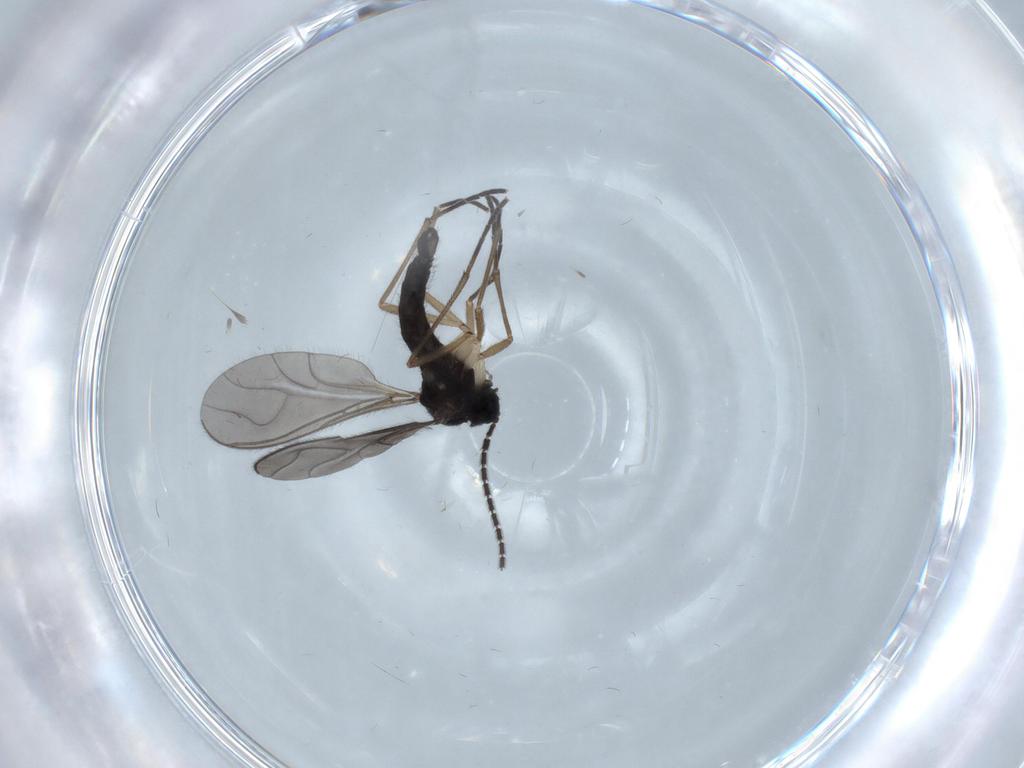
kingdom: Animalia
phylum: Arthropoda
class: Insecta
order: Diptera
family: Sciaridae
